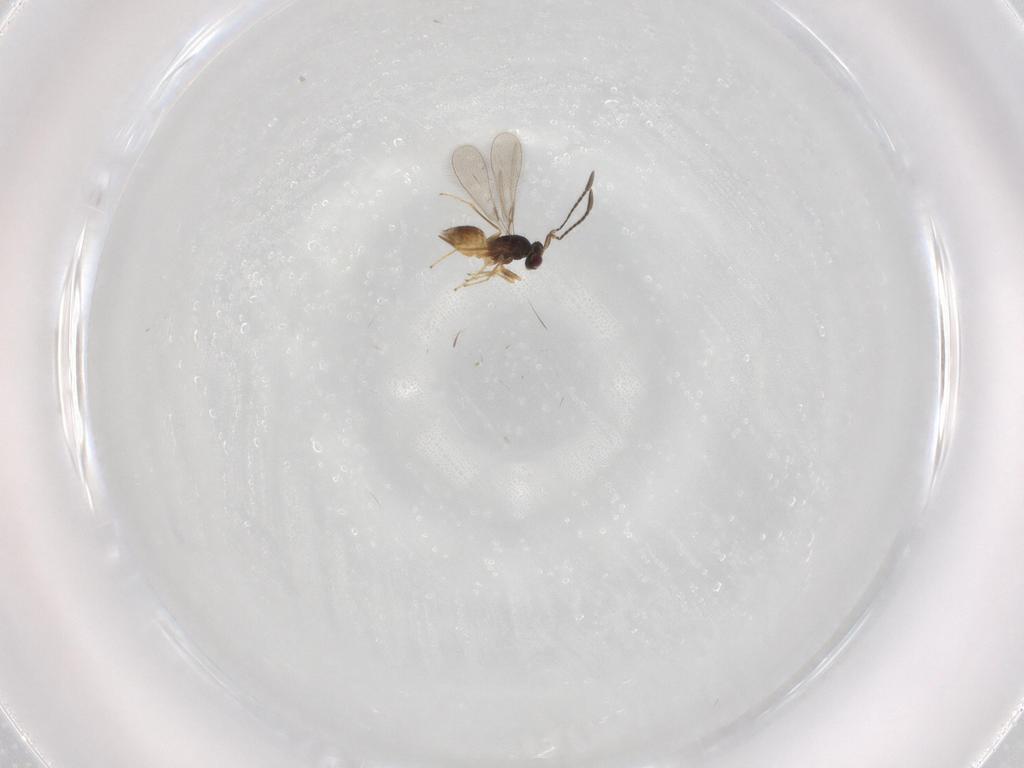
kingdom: Animalia
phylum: Arthropoda
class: Insecta
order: Hymenoptera
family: Mymaridae
